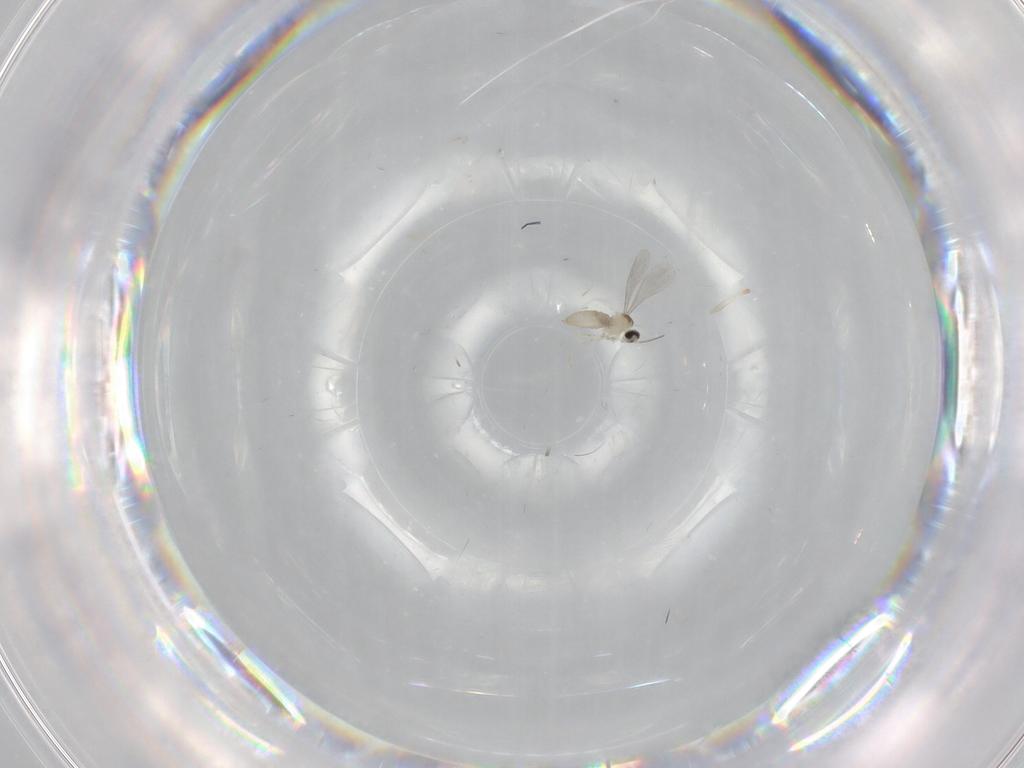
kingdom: Animalia
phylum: Arthropoda
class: Insecta
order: Diptera
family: Cecidomyiidae
